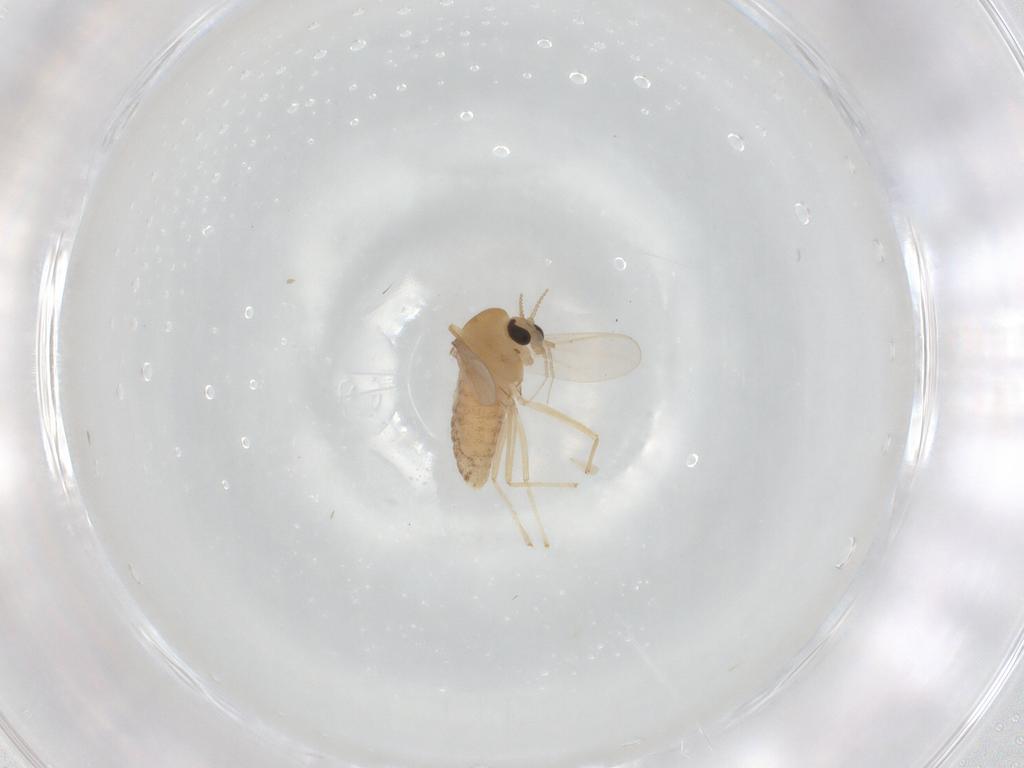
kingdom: Animalia
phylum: Arthropoda
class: Insecta
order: Diptera
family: Chironomidae
